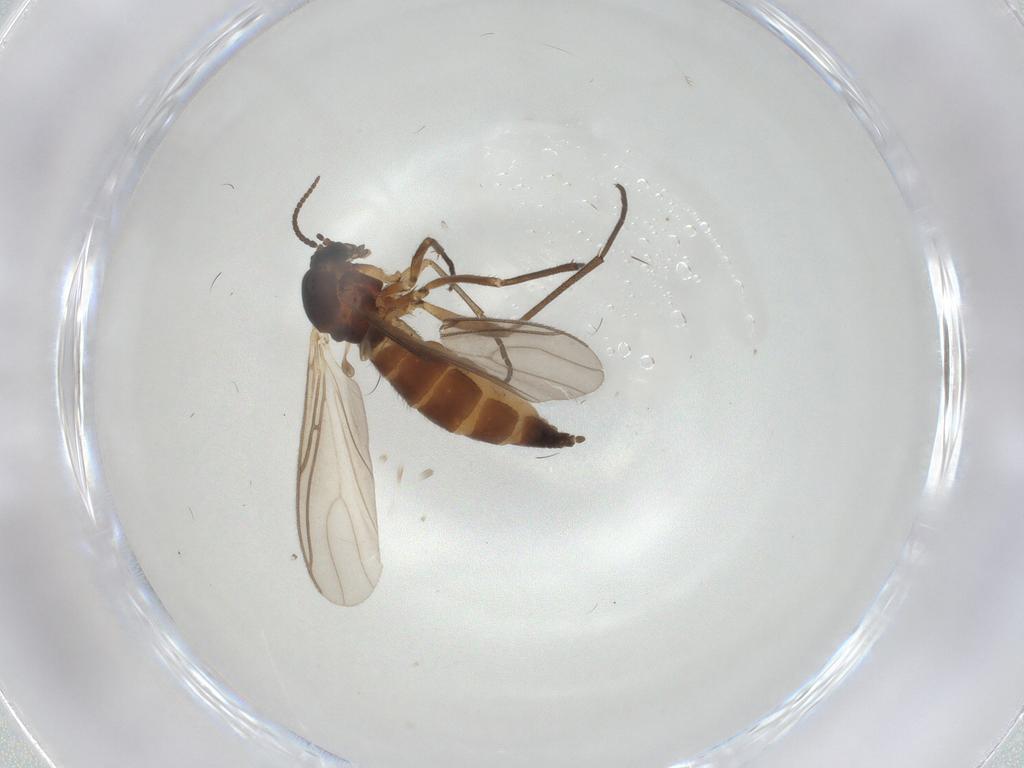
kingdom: Animalia
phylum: Arthropoda
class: Insecta
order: Diptera
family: Sciaridae
